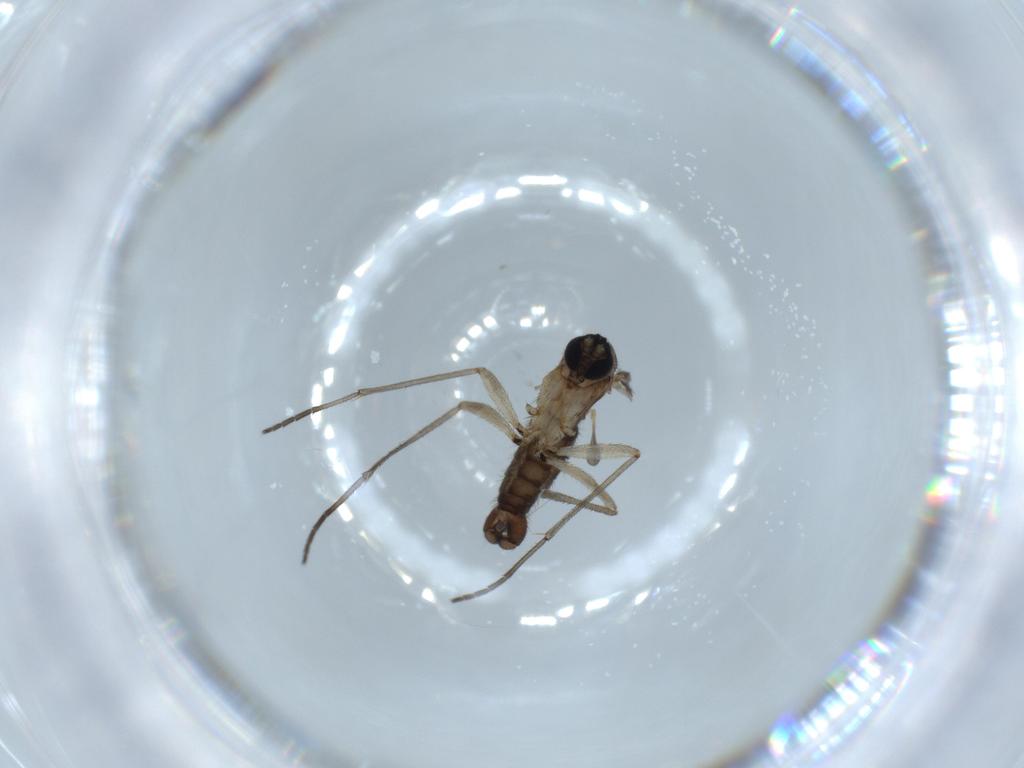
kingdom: Animalia
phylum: Arthropoda
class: Insecta
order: Diptera
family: Sciaridae
